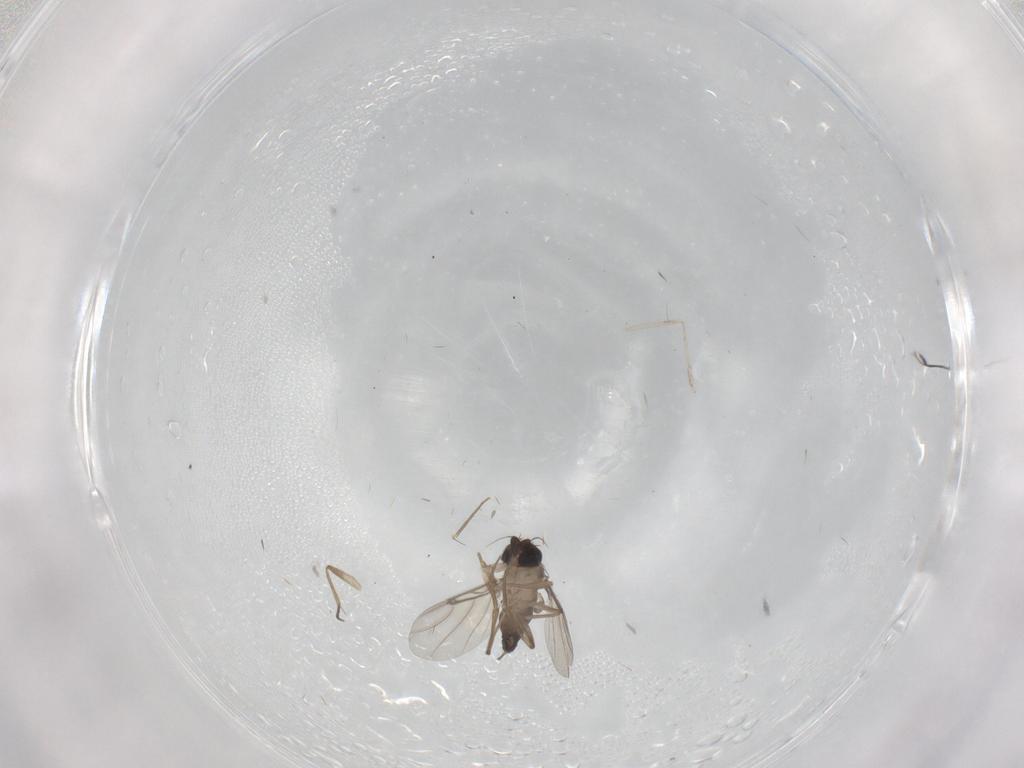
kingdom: Animalia
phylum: Arthropoda
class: Insecta
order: Diptera
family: Phoridae
